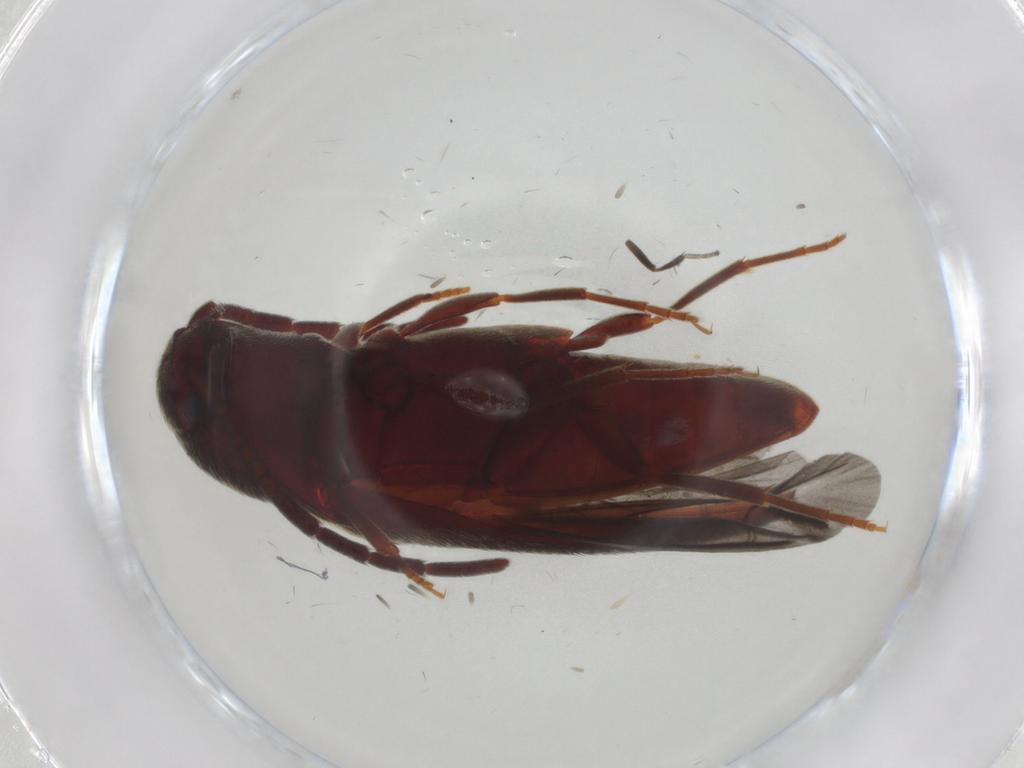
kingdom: Animalia
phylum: Arthropoda
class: Insecta
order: Coleoptera
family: Eucnemidae
